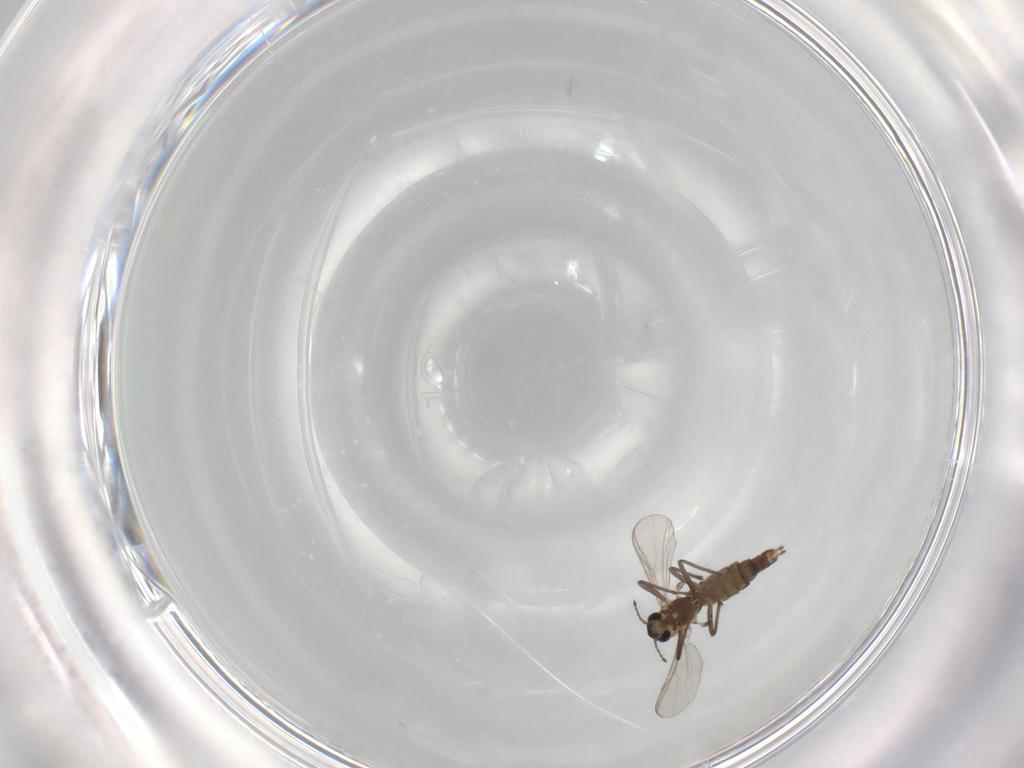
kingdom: Animalia
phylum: Arthropoda
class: Insecta
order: Diptera
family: Chironomidae
